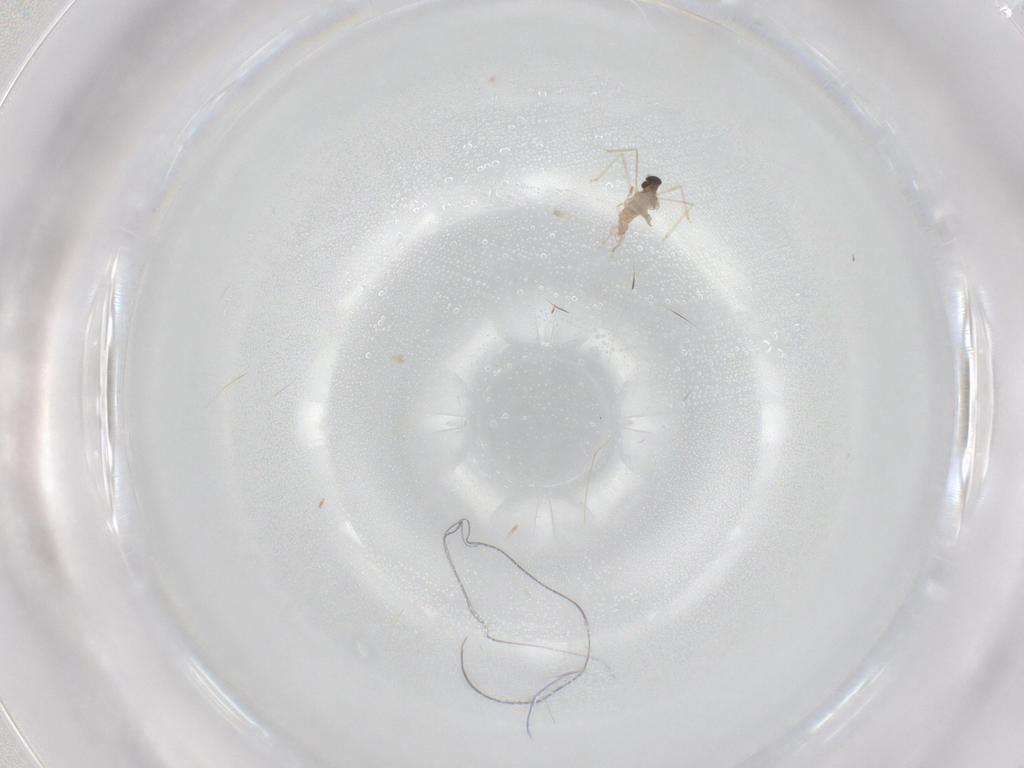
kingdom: Animalia
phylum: Arthropoda
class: Insecta
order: Diptera
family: Cecidomyiidae
